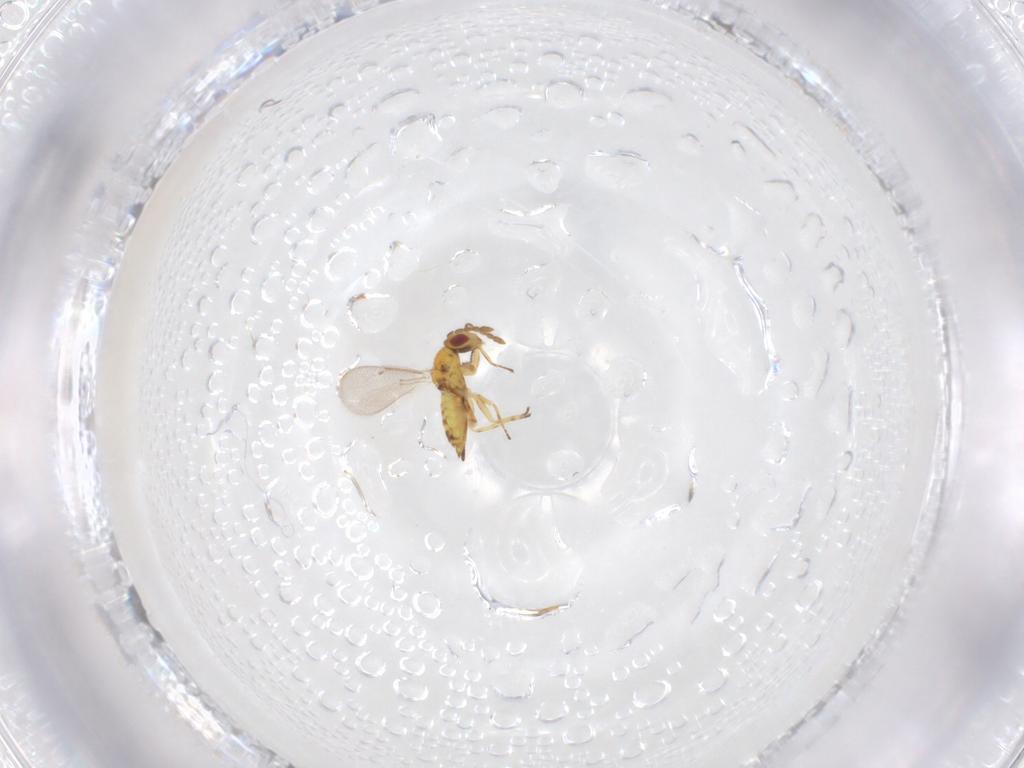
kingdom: Animalia
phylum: Arthropoda
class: Insecta
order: Hymenoptera
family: Eulophidae
